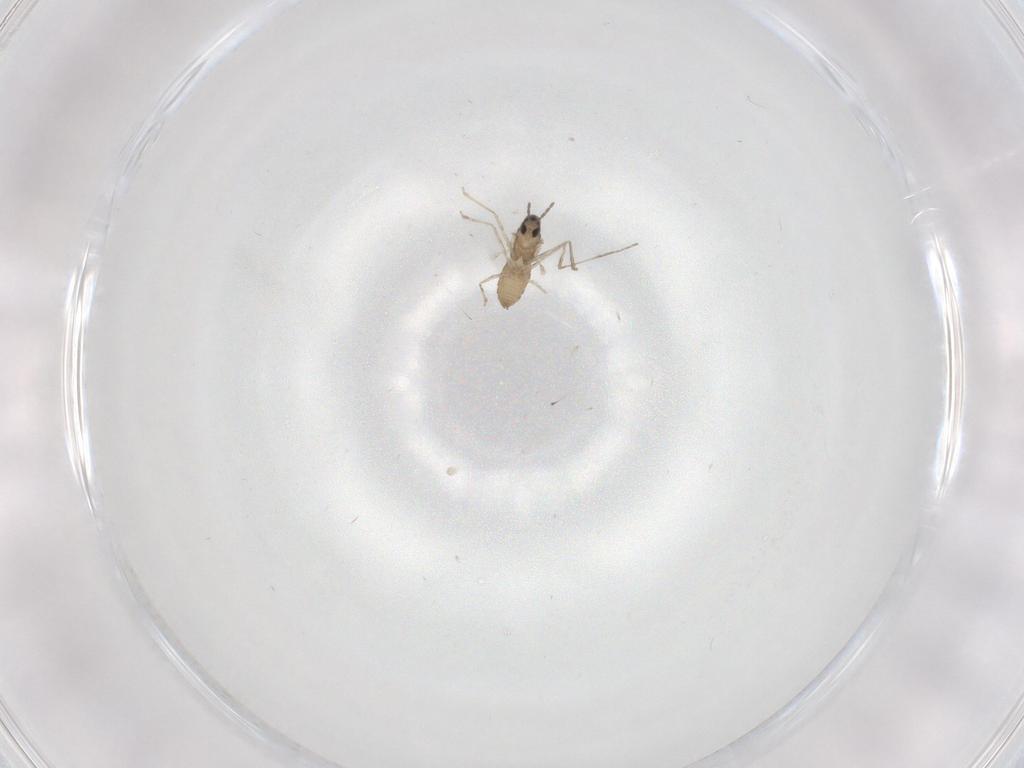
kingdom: Animalia
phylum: Arthropoda
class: Insecta
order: Diptera
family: Cecidomyiidae
